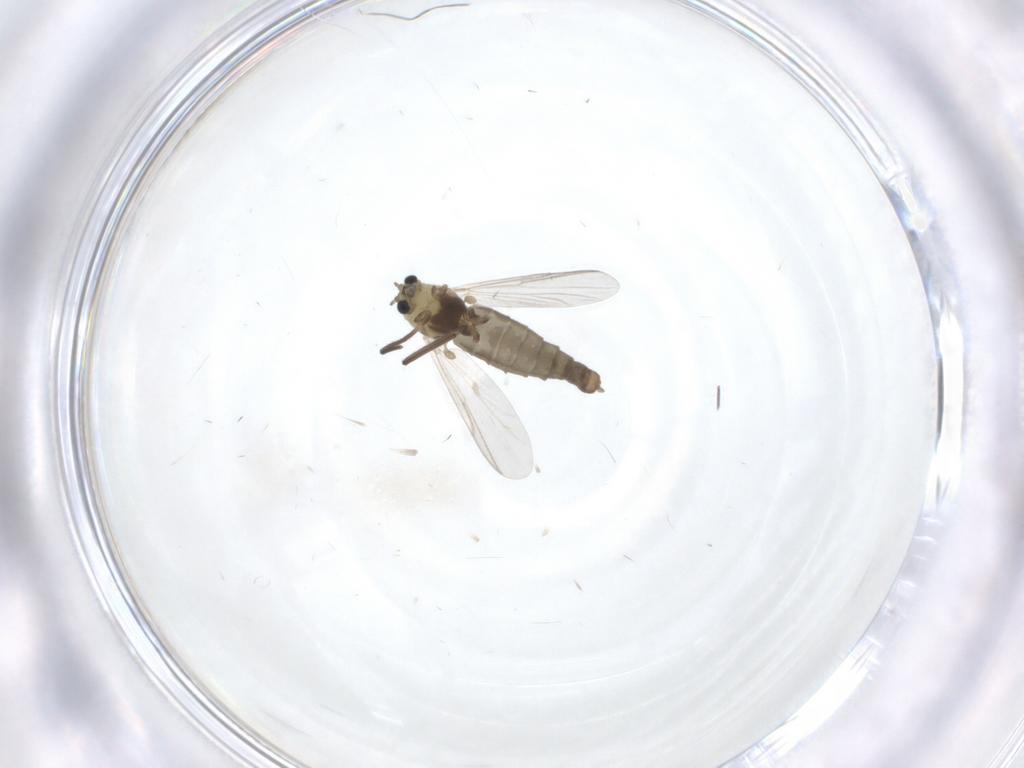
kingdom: Animalia
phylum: Arthropoda
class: Insecta
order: Diptera
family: Chironomidae
